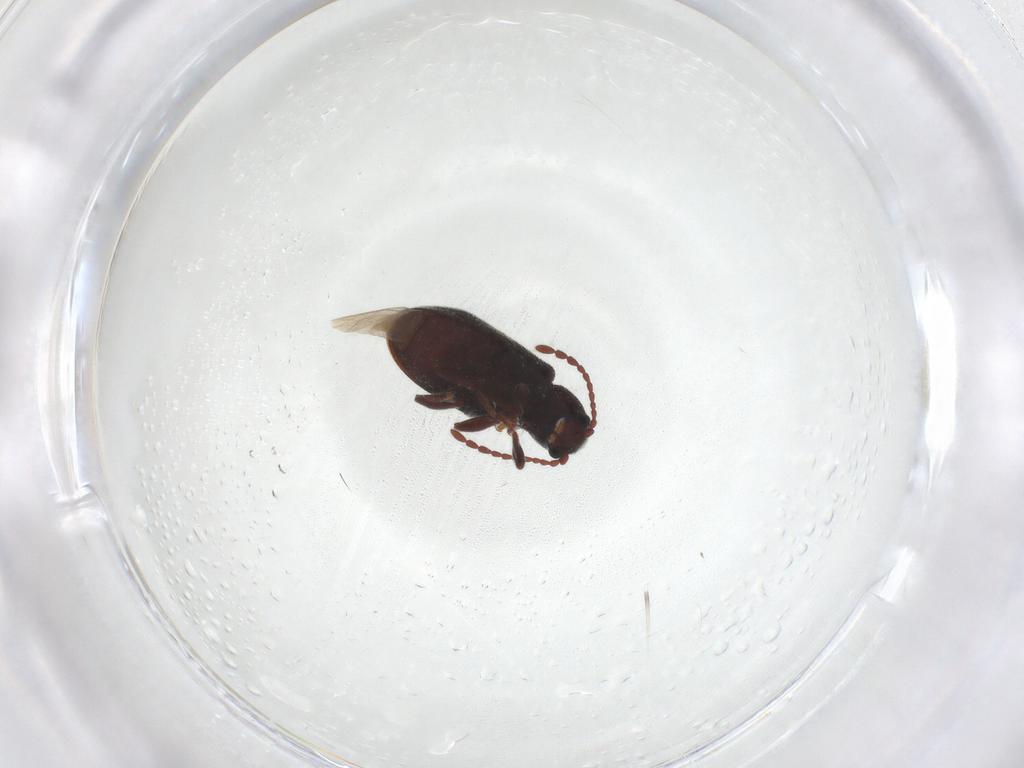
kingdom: Animalia
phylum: Arthropoda
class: Insecta
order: Coleoptera
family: Ptinidae
